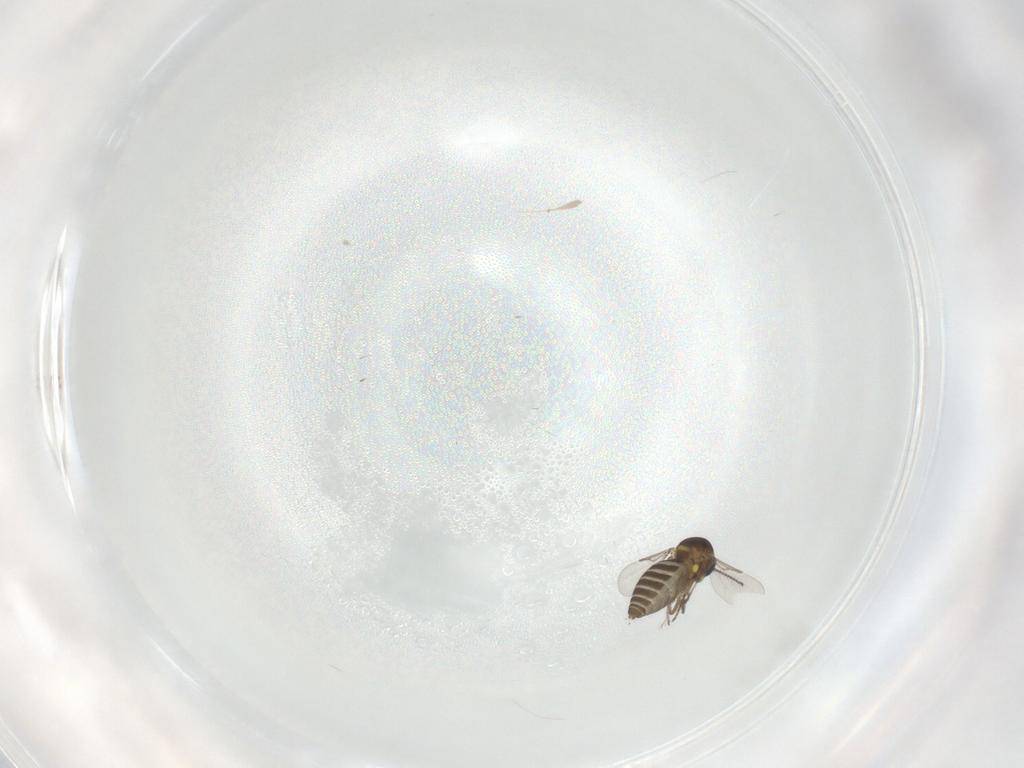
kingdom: Animalia
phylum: Arthropoda
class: Insecta
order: Diptera
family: Ceratopogonidae
